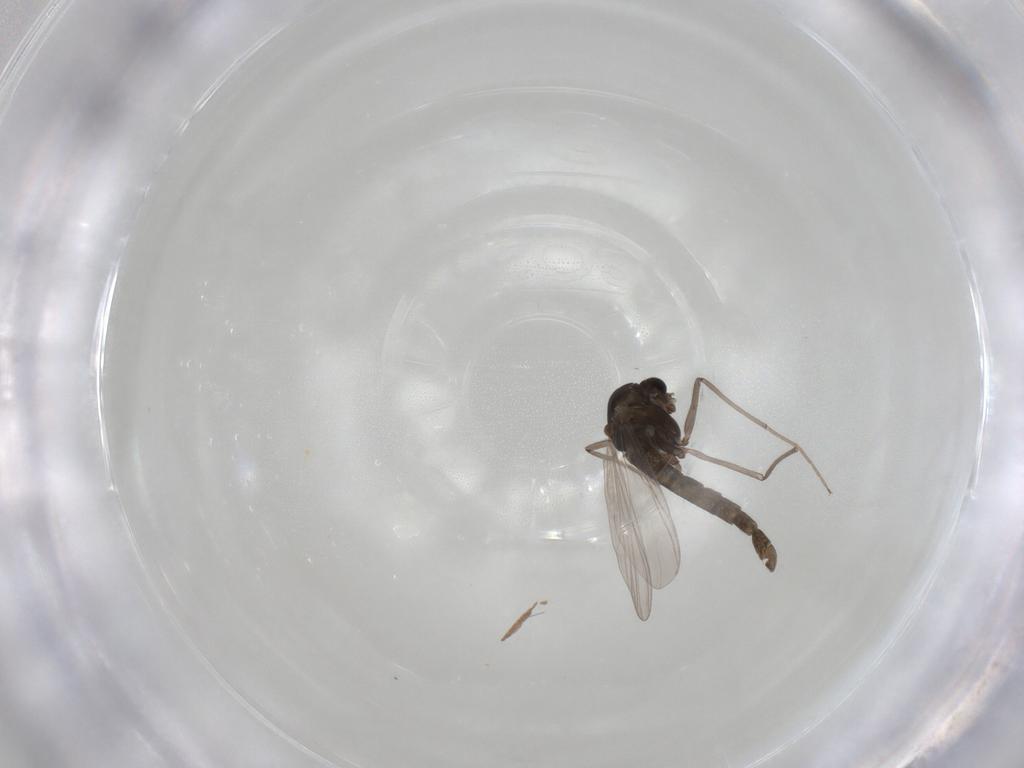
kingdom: Animalia
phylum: Arthropoda
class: Insecta
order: Diptera
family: Chironomidae
